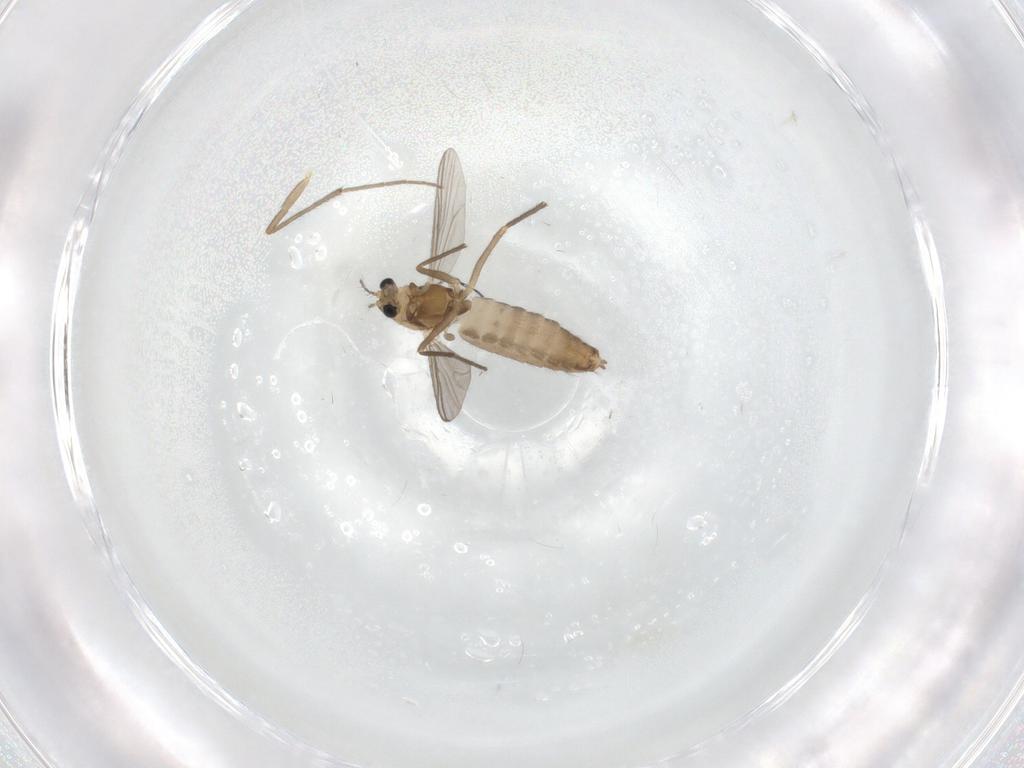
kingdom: Animalia
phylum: Arthropoda
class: Insecta
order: Diptera
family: Chironomidae
